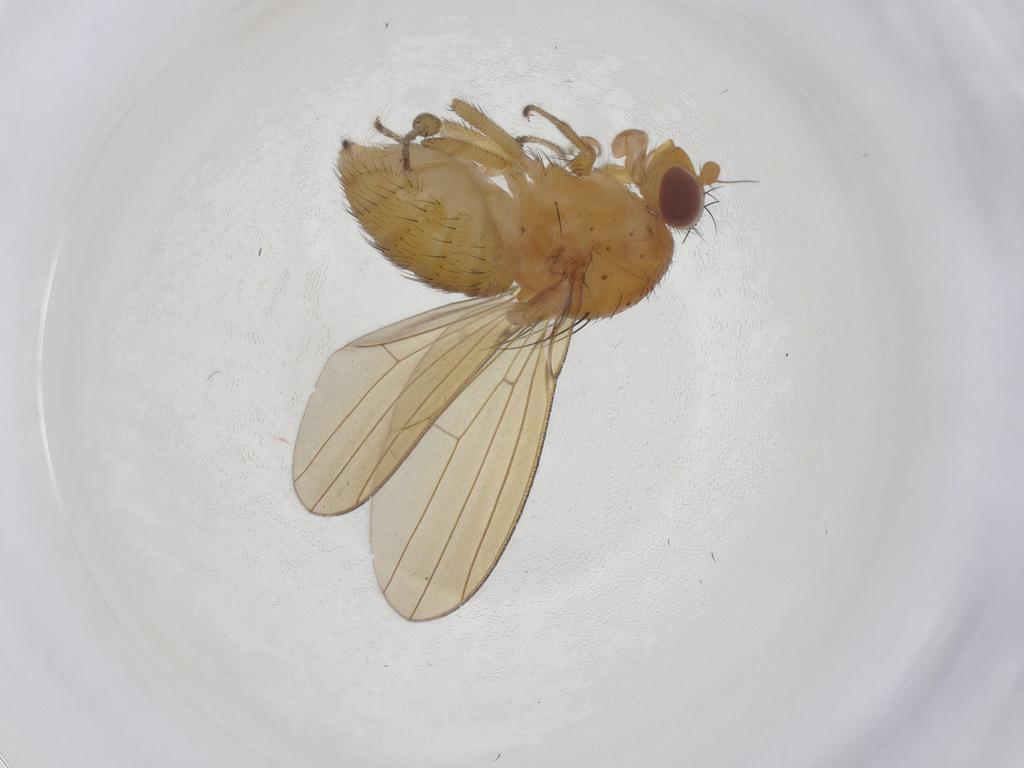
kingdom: Animalia
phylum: Arthropoda
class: Insecta
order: Diptera
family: Lauxaniidae
